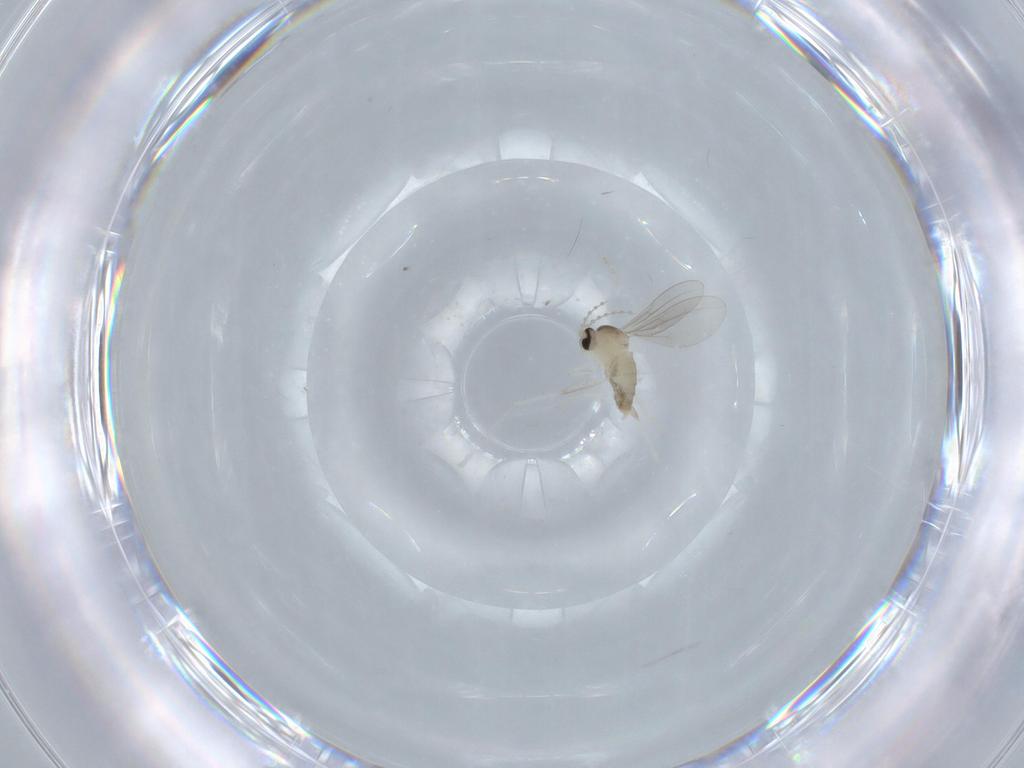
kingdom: Animalia
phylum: Arthropoda
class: Insecta
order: Diptera
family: Cecidomyiidae
